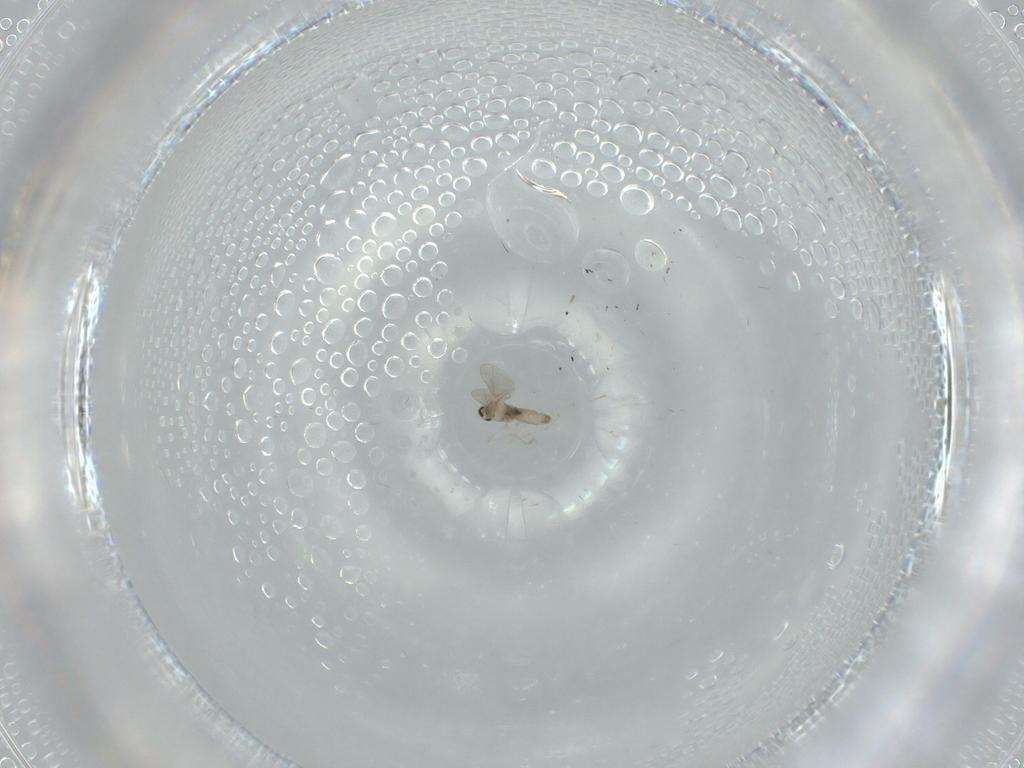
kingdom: Animalia
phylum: Arthropoda
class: Insecta
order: Diptera
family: Cecidomyiidae
